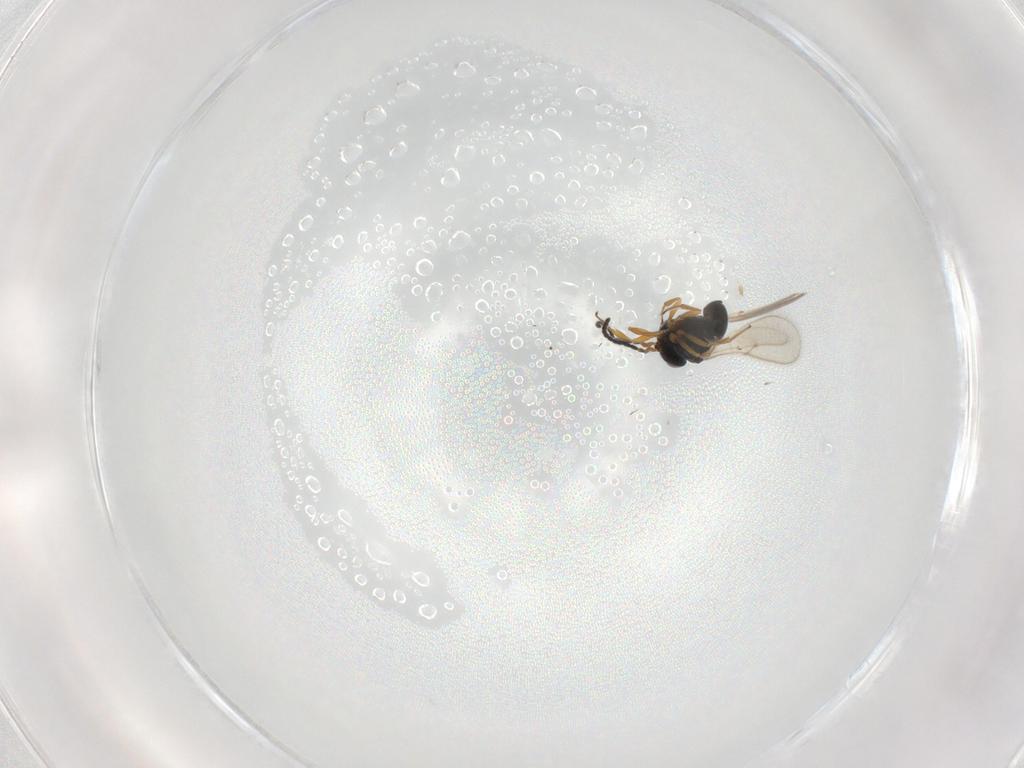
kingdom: Animalia
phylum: Arthropoda
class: Insecta
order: Hymenoptera
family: Scelionidae
